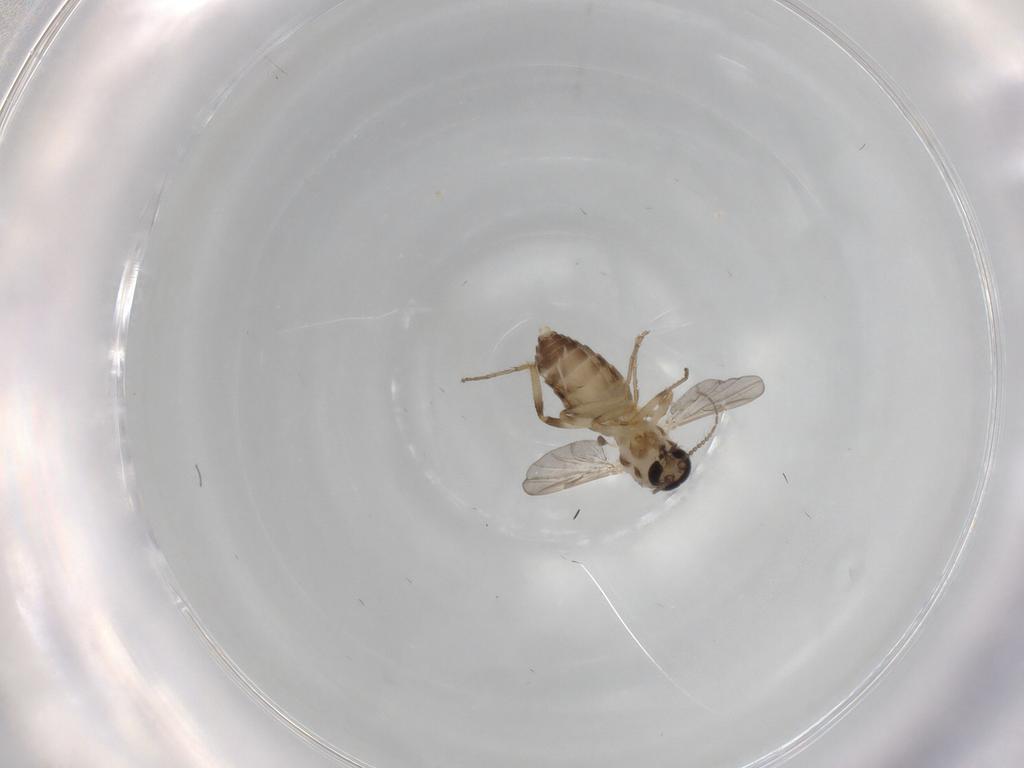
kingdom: Animalia
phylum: Arthropoda
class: Insecta
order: Diptera
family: Ceratopogonidae
